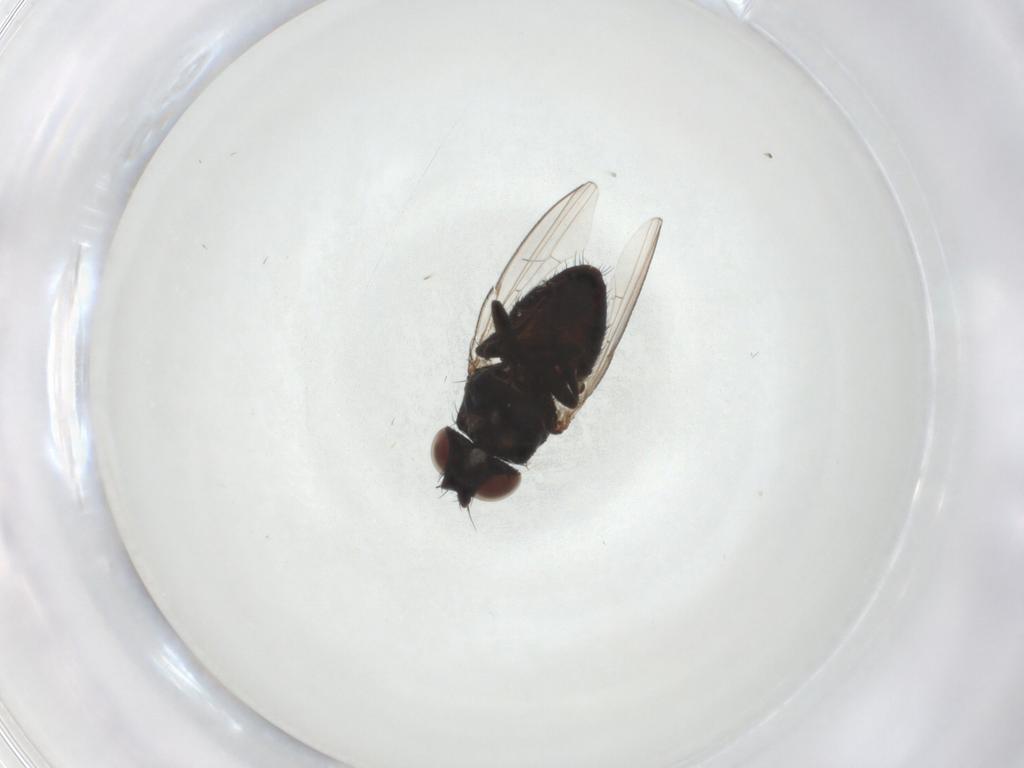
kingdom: Animalia
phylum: Arthropoda
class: Insecta
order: Diptera
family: Chloropidae
